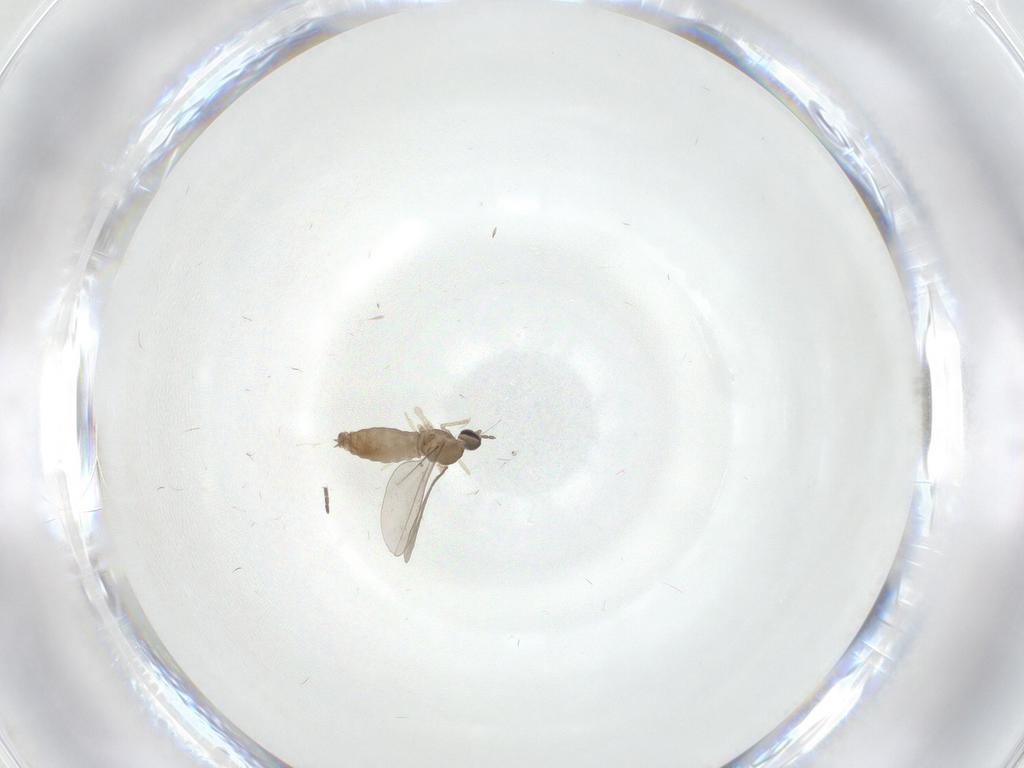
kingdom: Animalia
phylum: Arthropoda
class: Insecta
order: Diptera
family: Sciaridae
